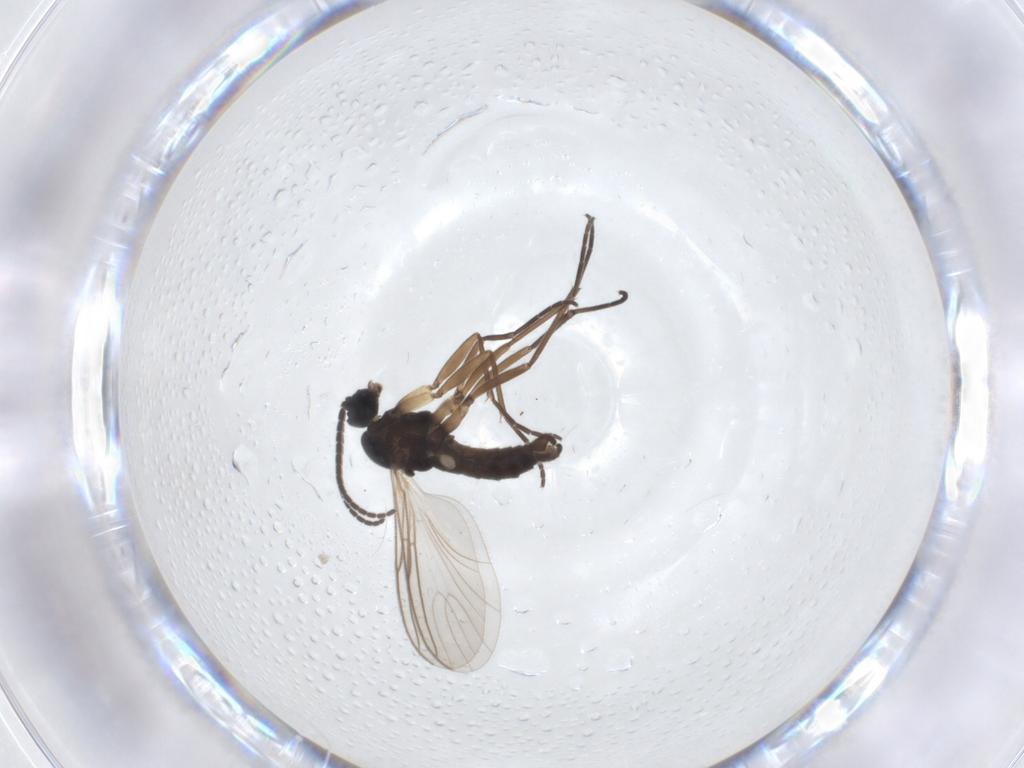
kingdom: Animalia
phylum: Arthropoda
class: Insecta
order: Diptera
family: Sciaridae
